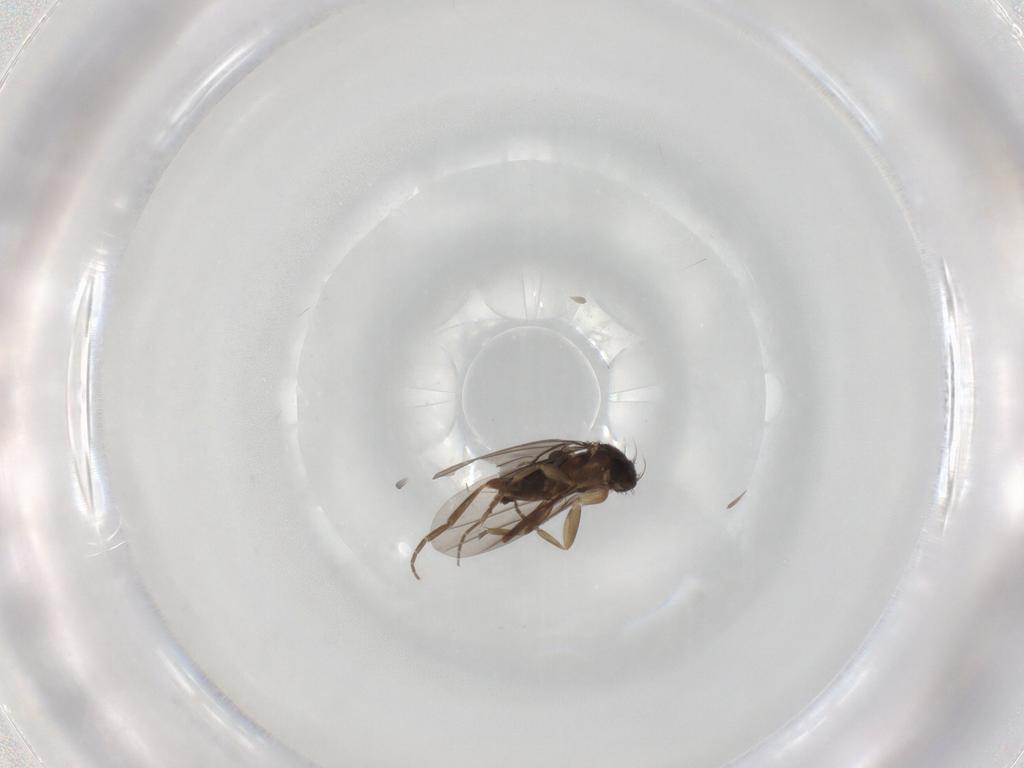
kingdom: Animalia
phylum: Arthropoda
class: Insecta
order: Diptera
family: Phoridae
